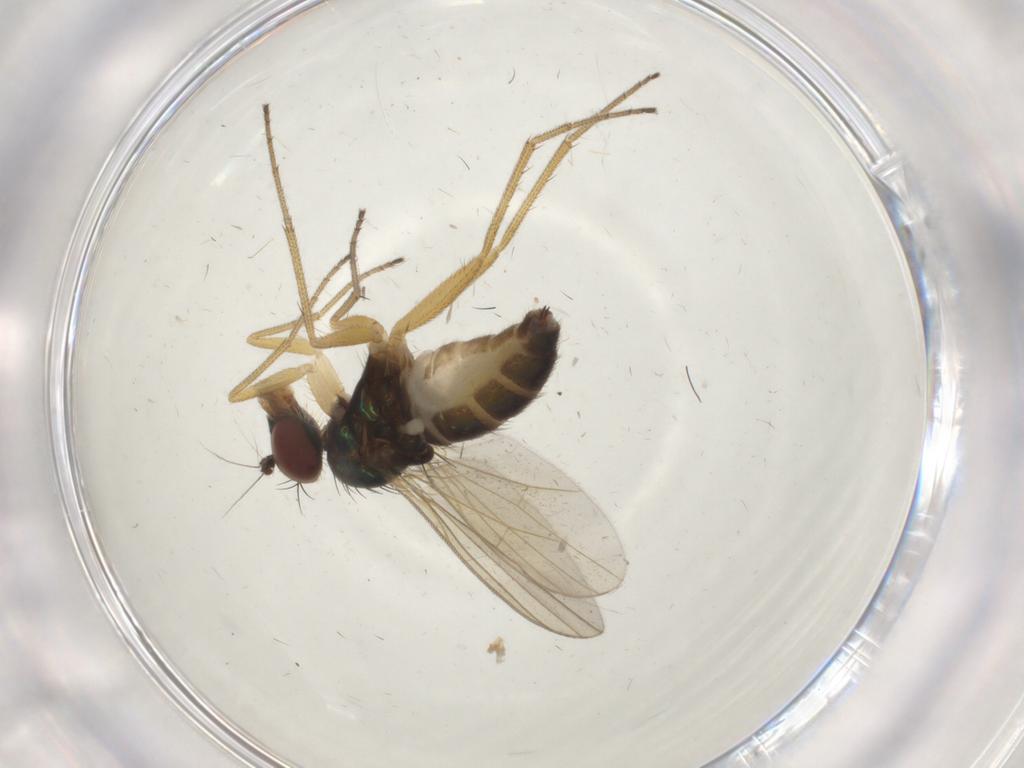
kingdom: Animalia
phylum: Arthropoda
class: Insecta
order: Diptera
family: Dolichopodidae
